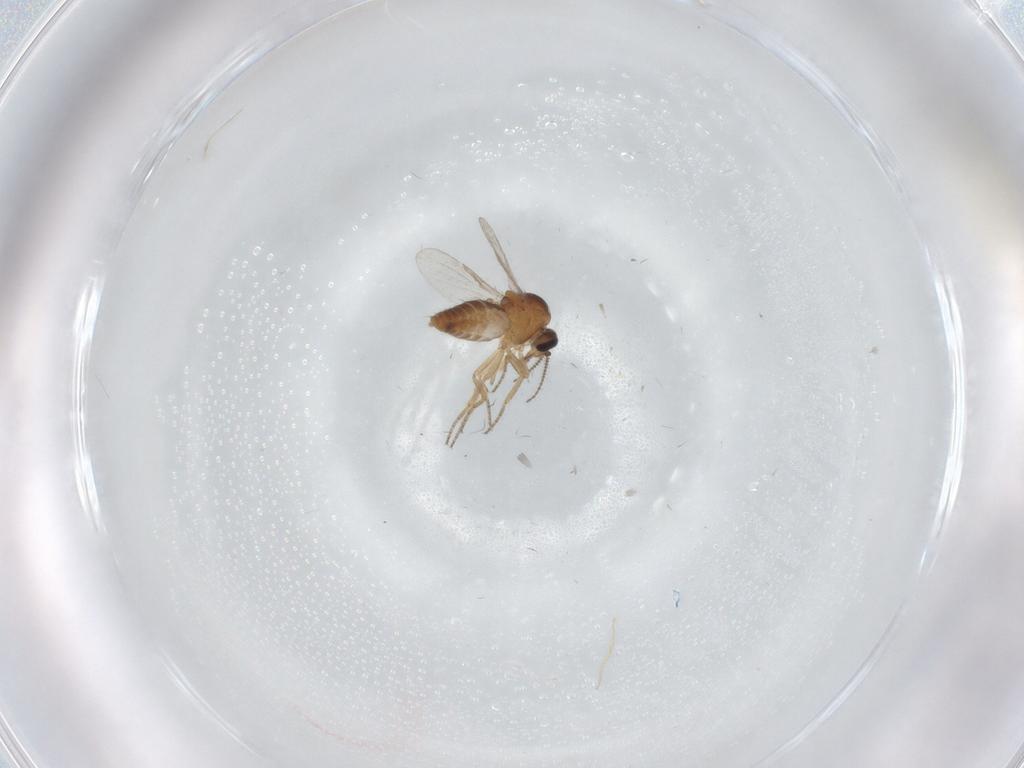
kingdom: Animalia
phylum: Arthropoda
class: Insecta
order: Diptera
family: Ceratopogonidae
